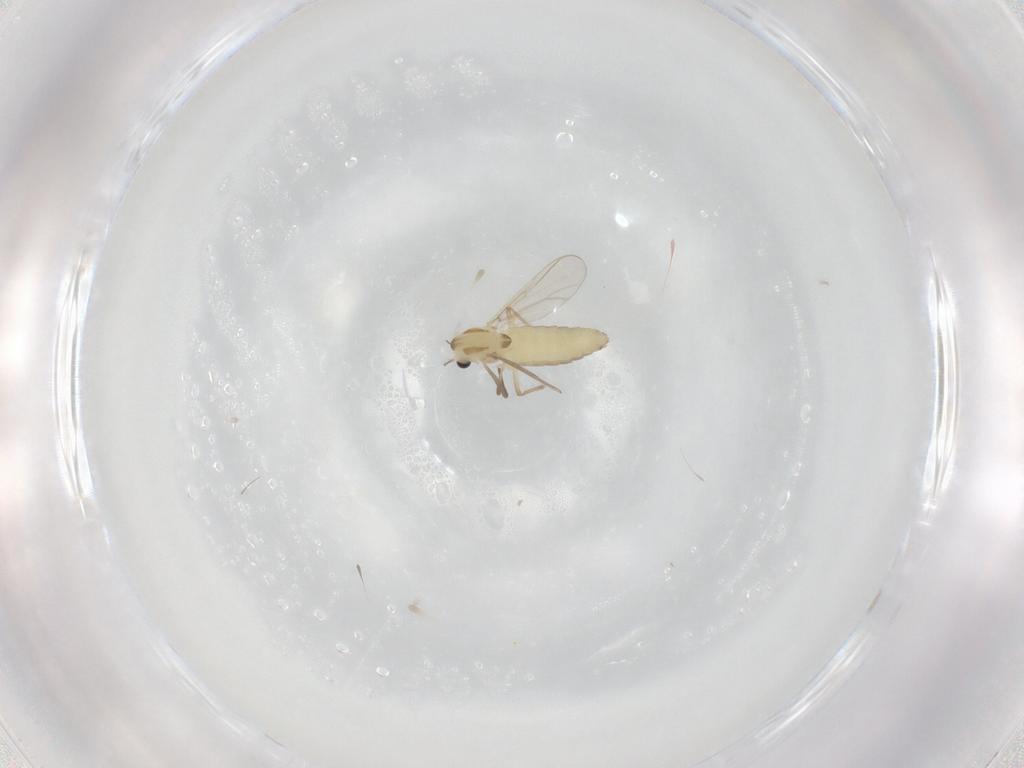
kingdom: Animalia
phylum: Arthropoda
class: Insecta
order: Diptera
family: Chironomidae
